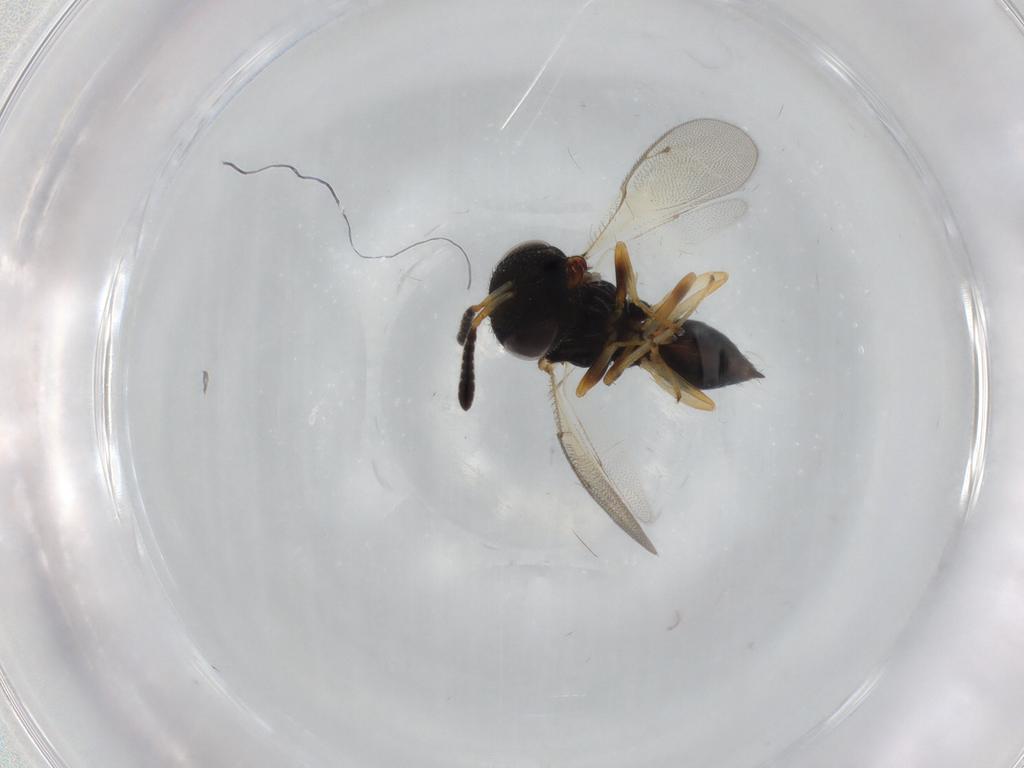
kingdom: Animalia
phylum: Arthropoda
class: Insecta
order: Hymenoptera
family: Pteromalidae
